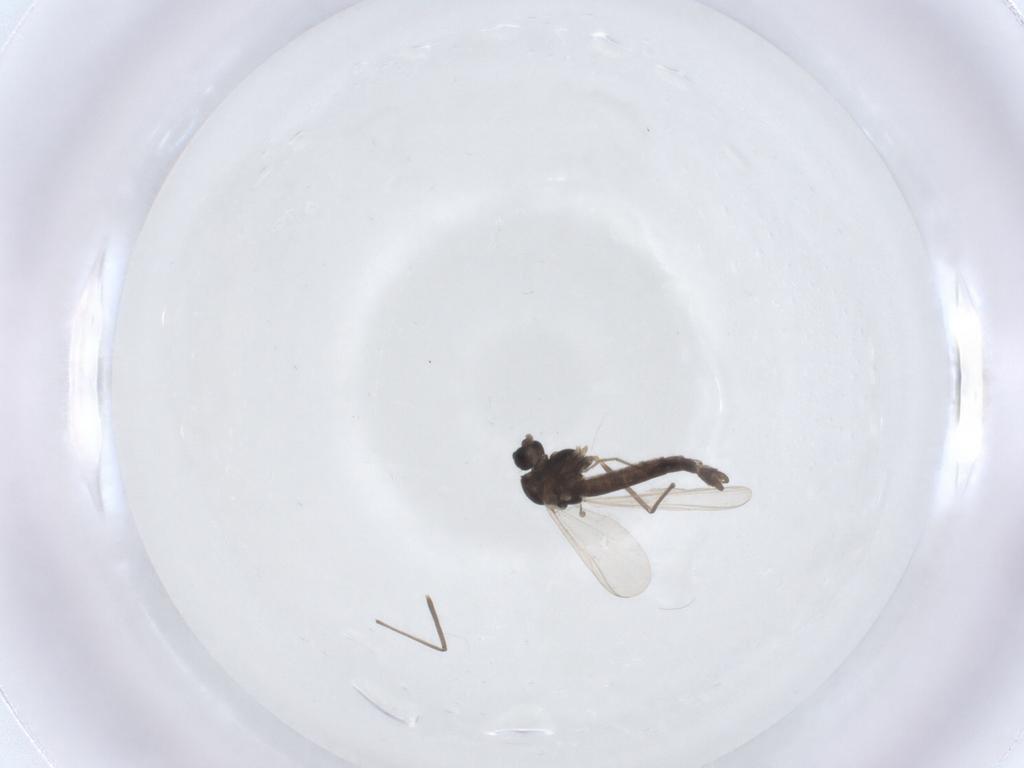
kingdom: Animalia
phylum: Arthropoda
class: Insecta
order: Diptera
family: Chironomidae
